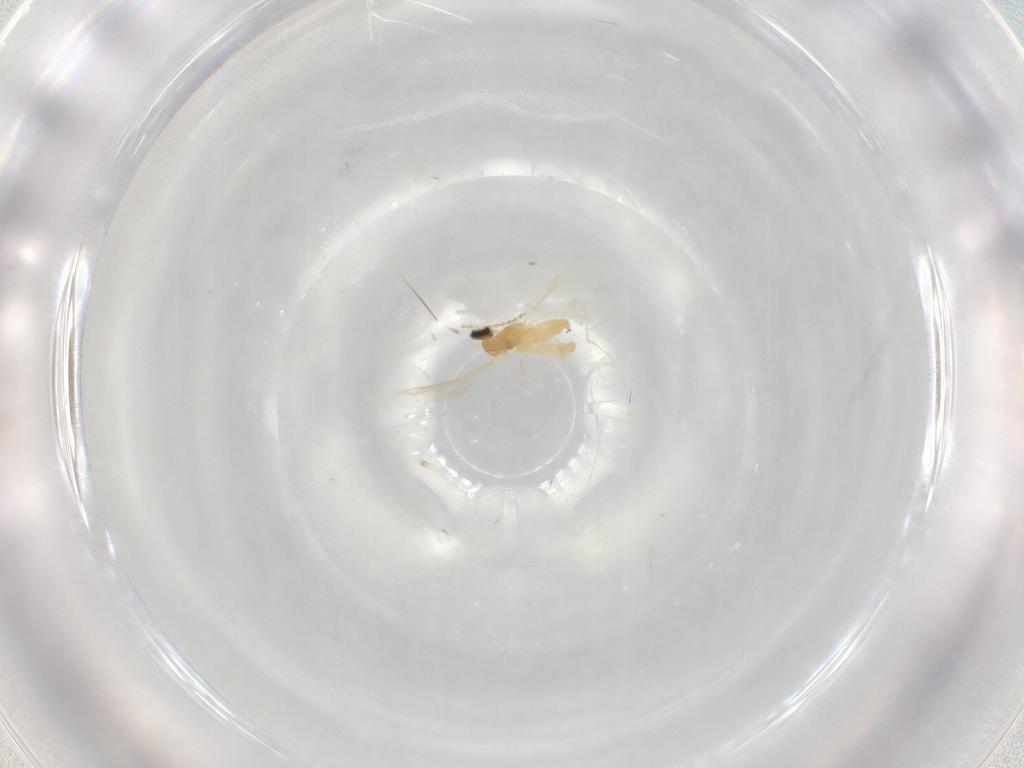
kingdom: Animalia
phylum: Arthropoda
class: Insecta
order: Diptera
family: Sarcophagidae
